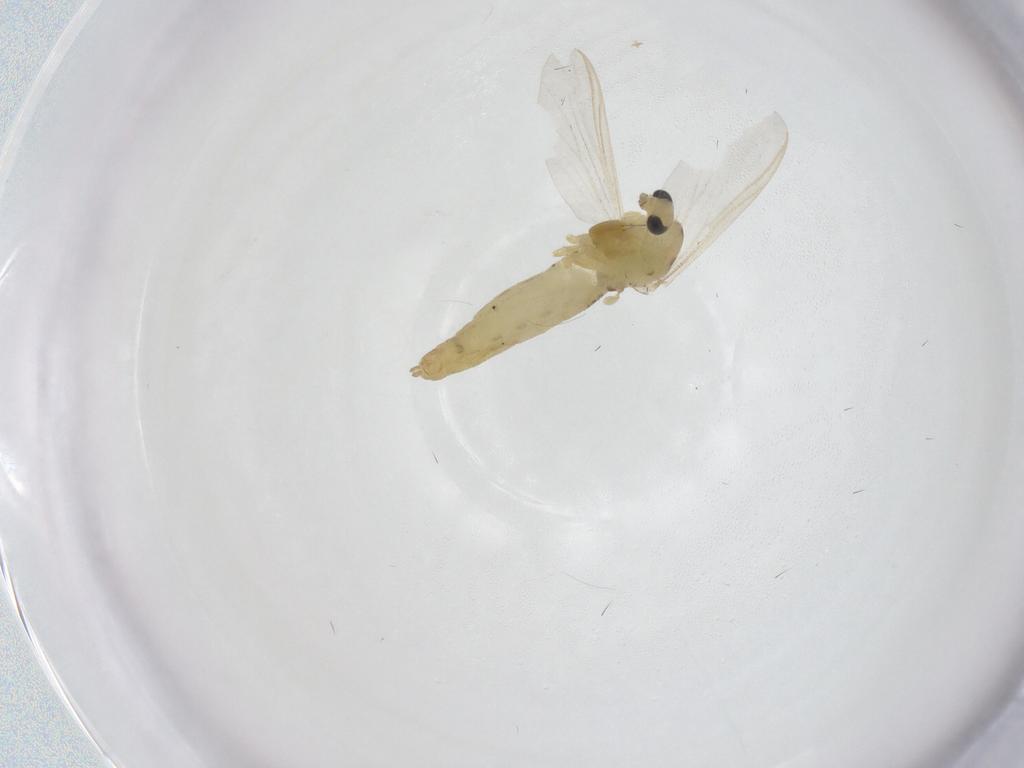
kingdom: Animalia
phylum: Arthropoda
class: Insecta
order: Diptera
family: Chironomidae
